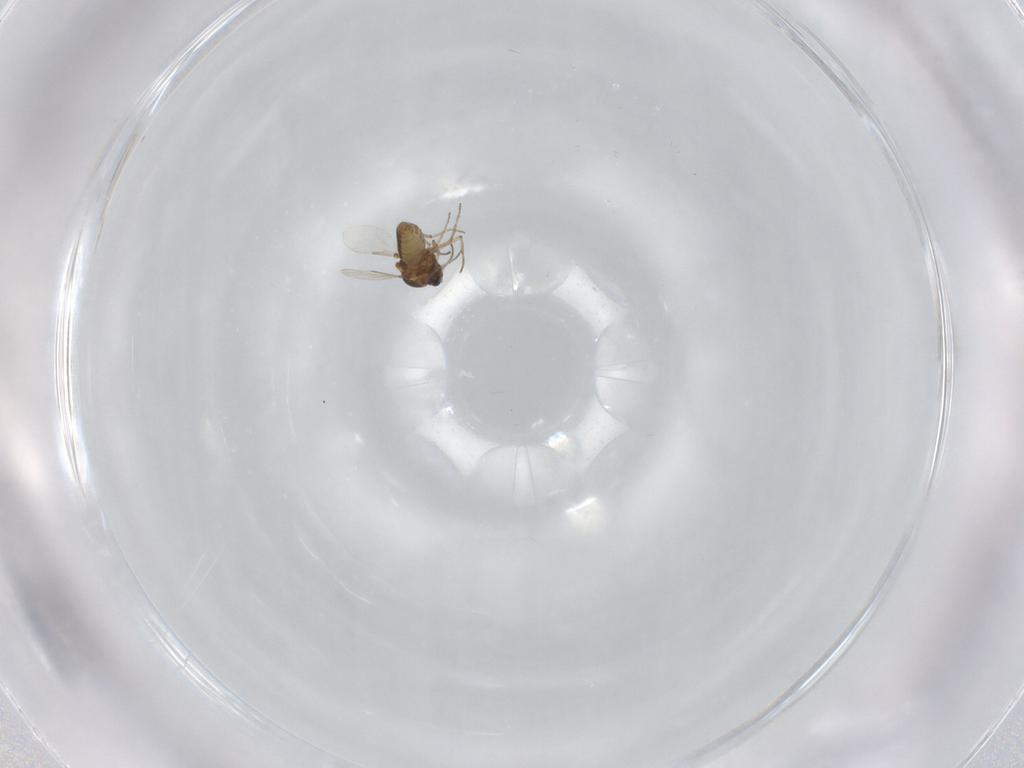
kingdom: Animalia
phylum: Arthropoda
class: Insecta
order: Diptera
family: Ceratopogonidae
